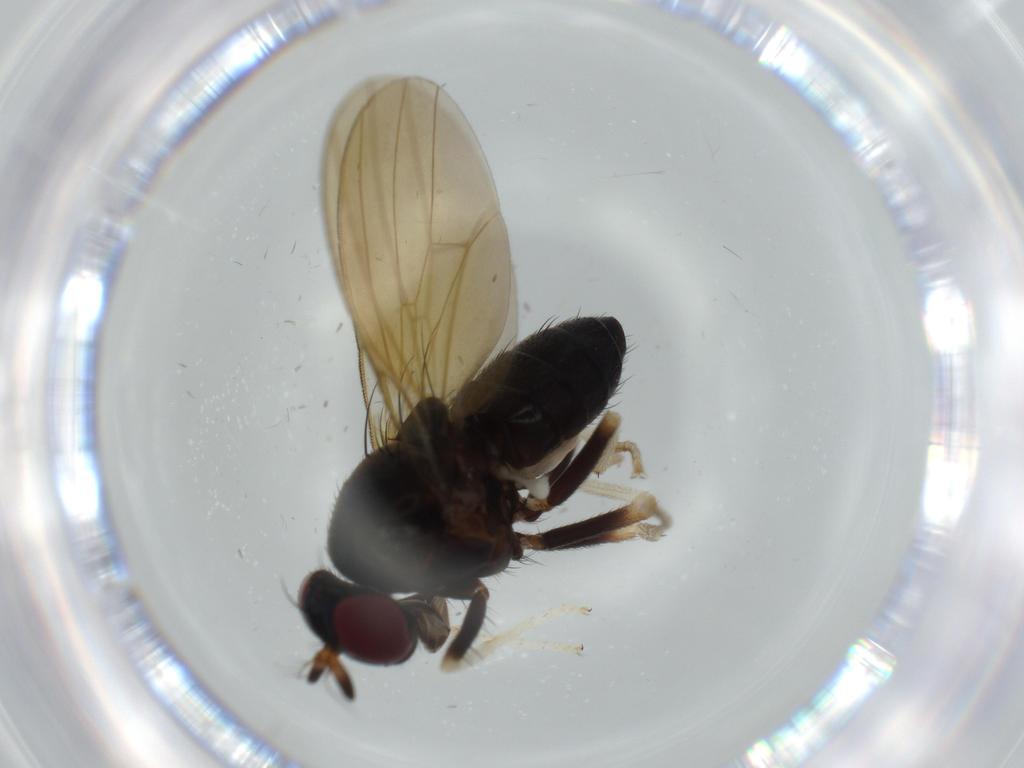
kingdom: Animalia
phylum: Arthropoda
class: Insecta
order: Diptera
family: Lauxaniidae
